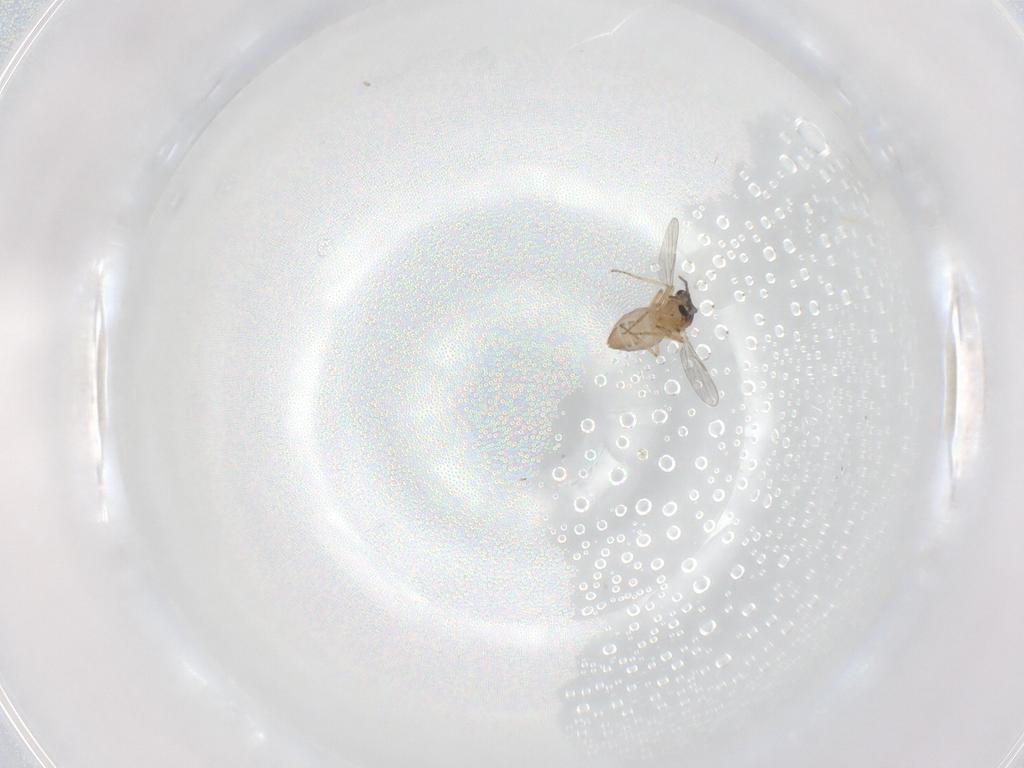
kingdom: Animalia
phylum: Arthropoda
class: Insecta
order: Diptera
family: Ceratopogonidae
